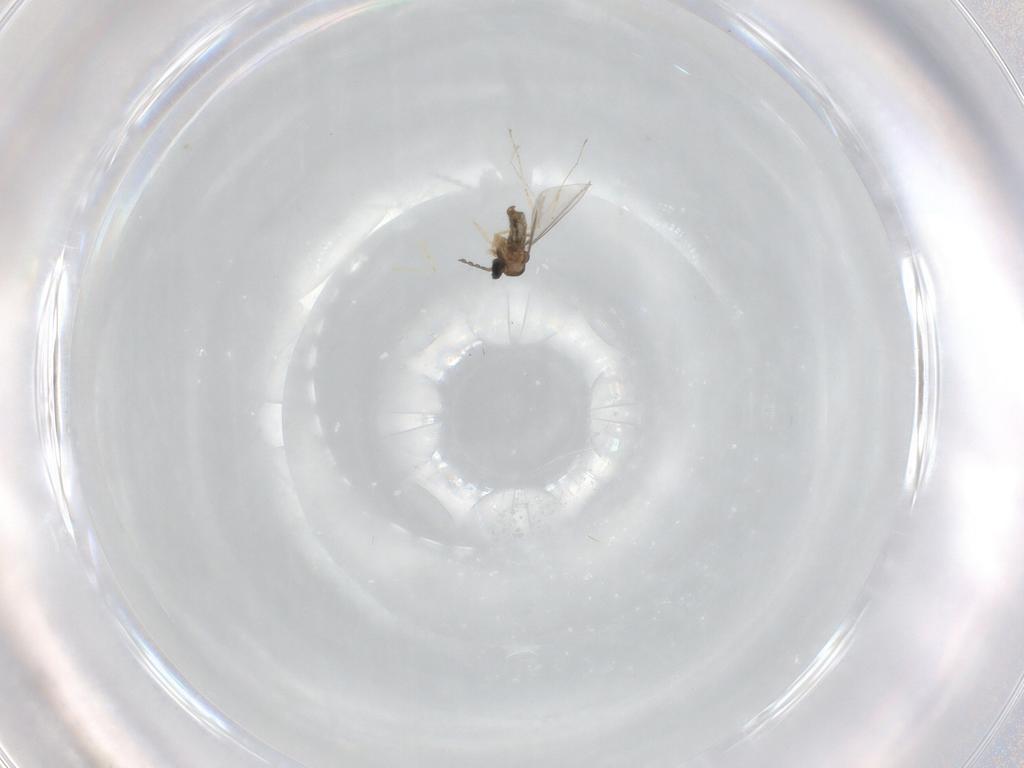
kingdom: Animalia
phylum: Arthropoda
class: Insecta
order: Diptera
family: Cecidomyiidae
